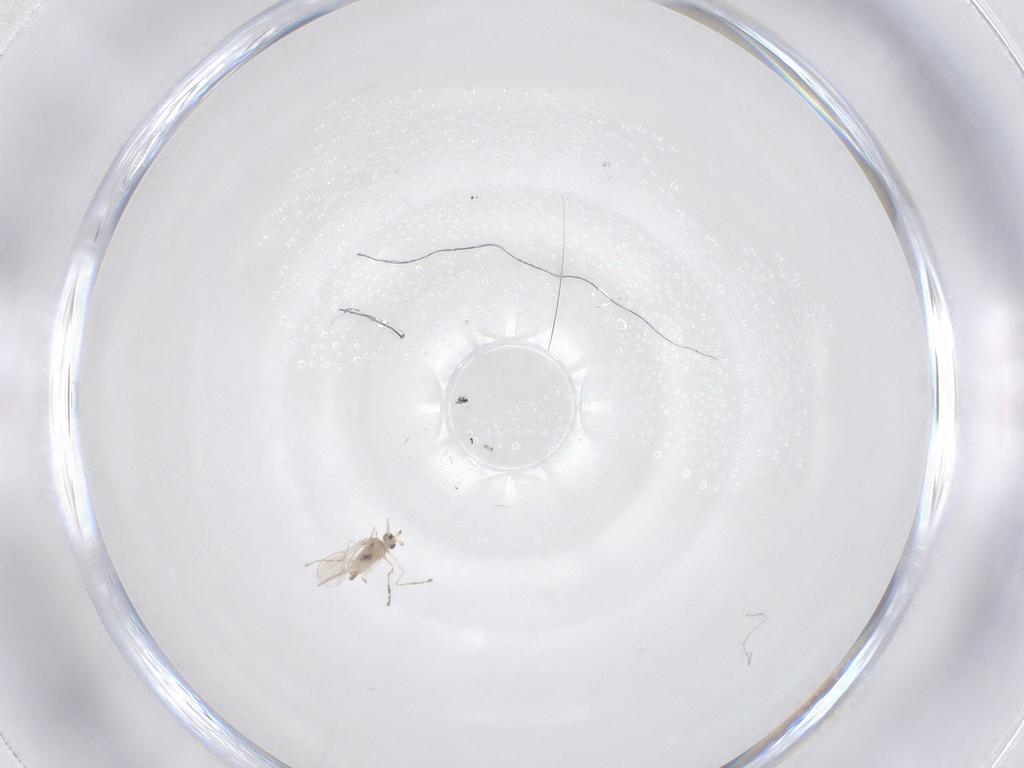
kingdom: Animalia
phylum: Arthropoda
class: Insecta
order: Diptera
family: Cecidomyiidae
